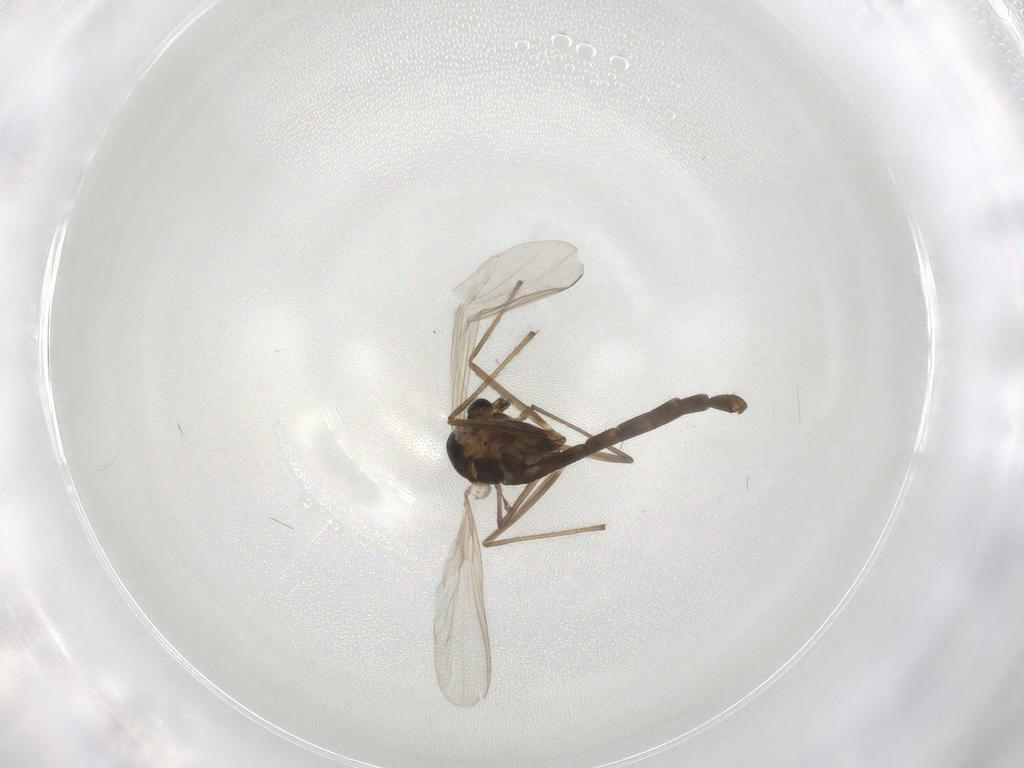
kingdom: Animalia
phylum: Arthropoda
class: Insecta
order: Diptera
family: Chironomidae
